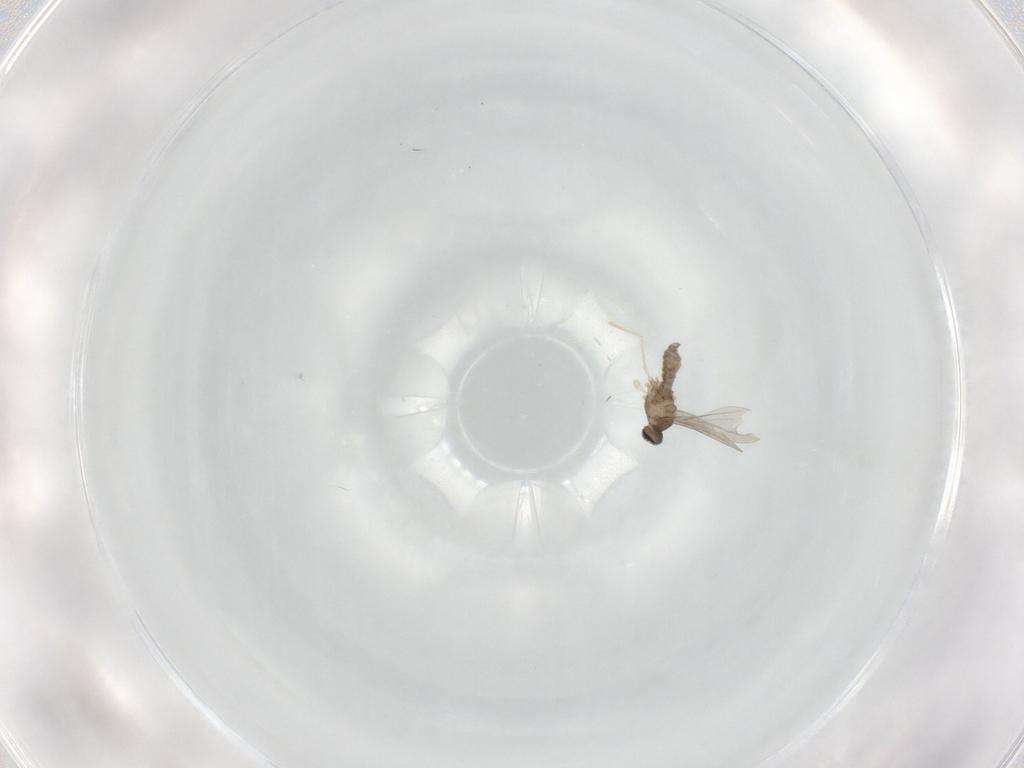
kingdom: Animalia
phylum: Arthropoda
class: Insecta
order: Diptera
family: Cecidomyiidae
